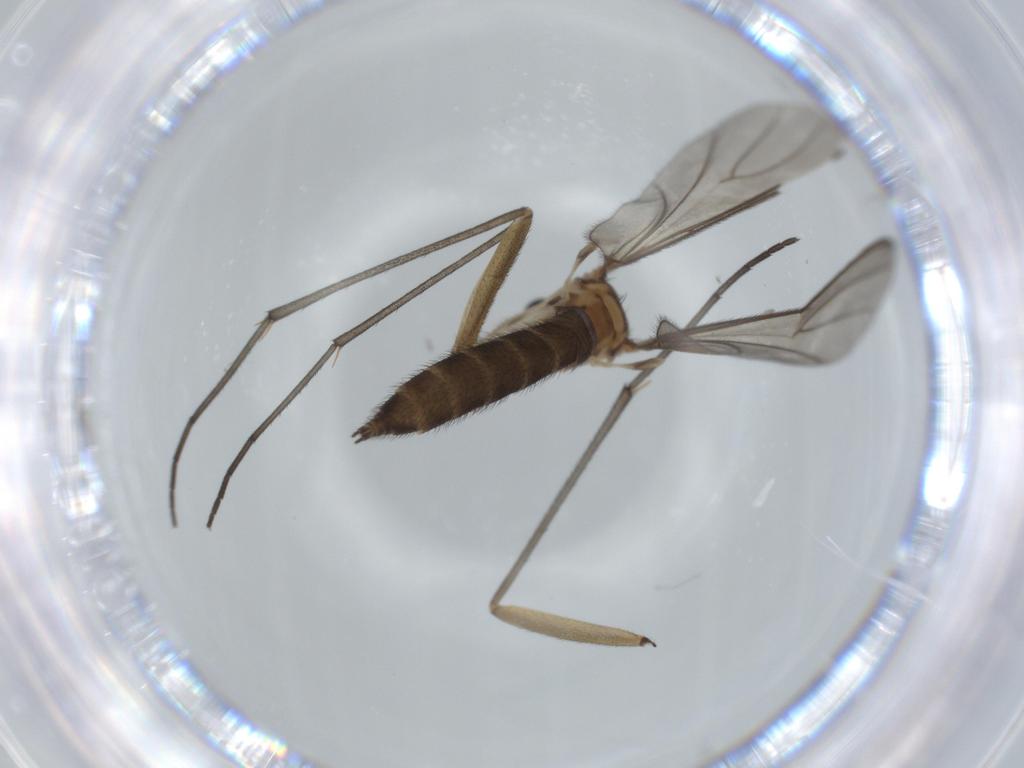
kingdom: Animalia
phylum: Arthropoda
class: Insecta
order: Diptera
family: Sciaridae
